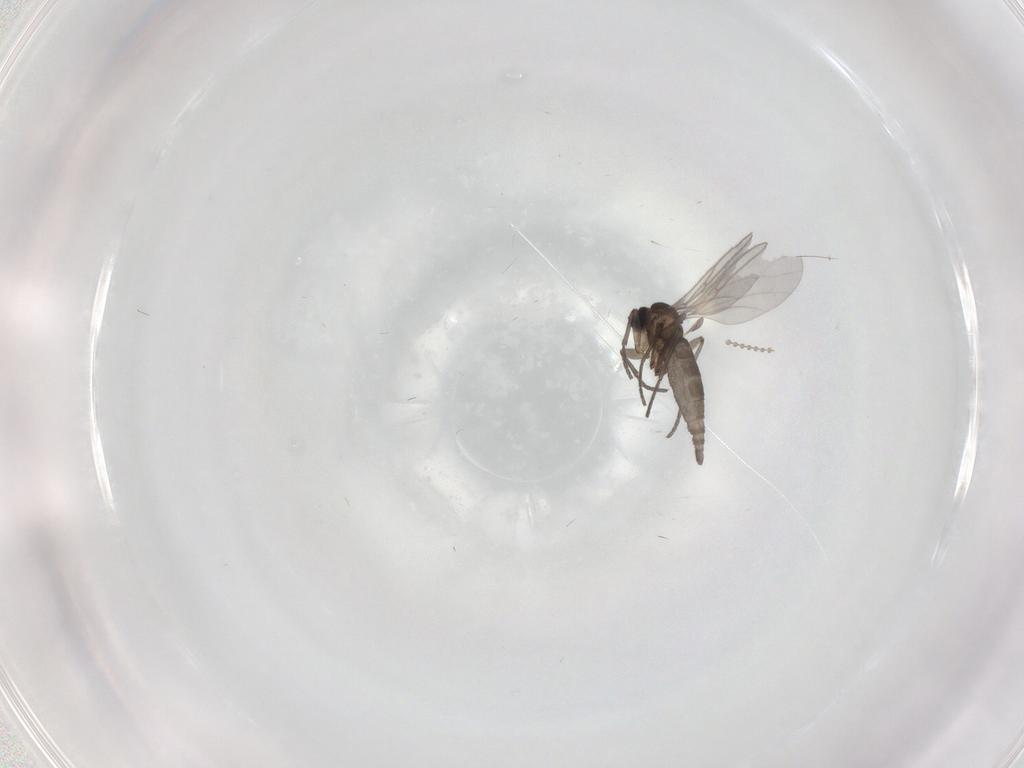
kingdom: Animalia
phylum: Arthropoda
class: Insecta
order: Diptera
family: Sciaridae
